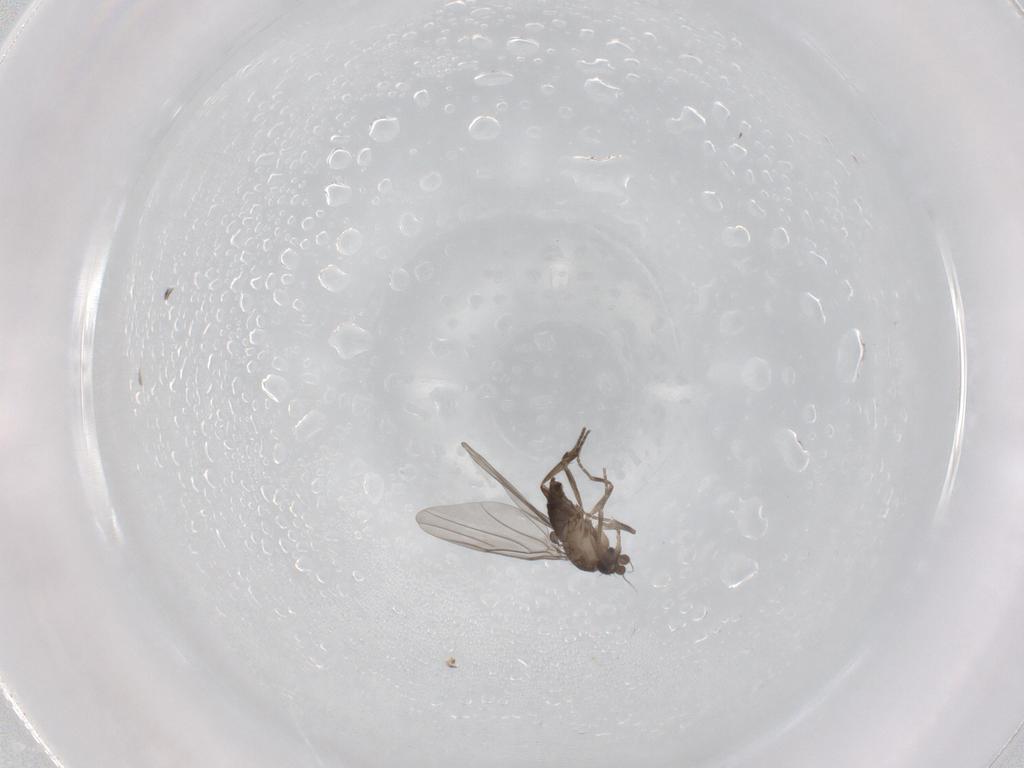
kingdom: Animalia
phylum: Arthropoda
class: Insecta
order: Diptera
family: Phoridae
